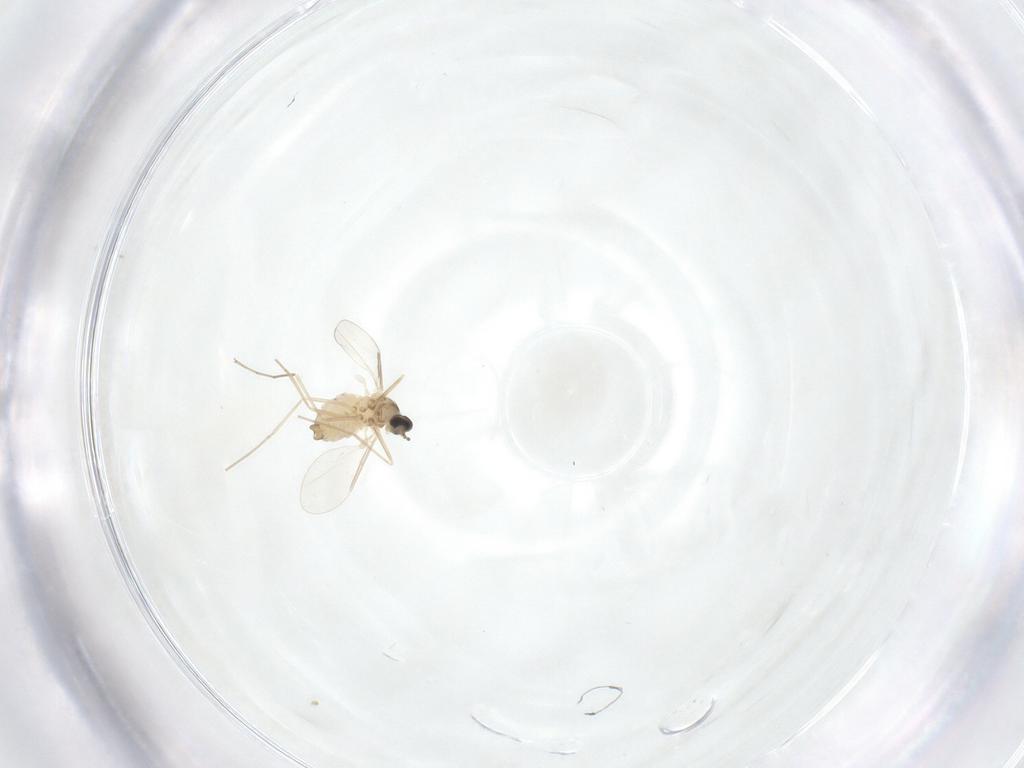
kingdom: Animalia
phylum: Arthropoda
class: Insecta
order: Diptera
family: Cecidomyiidae
